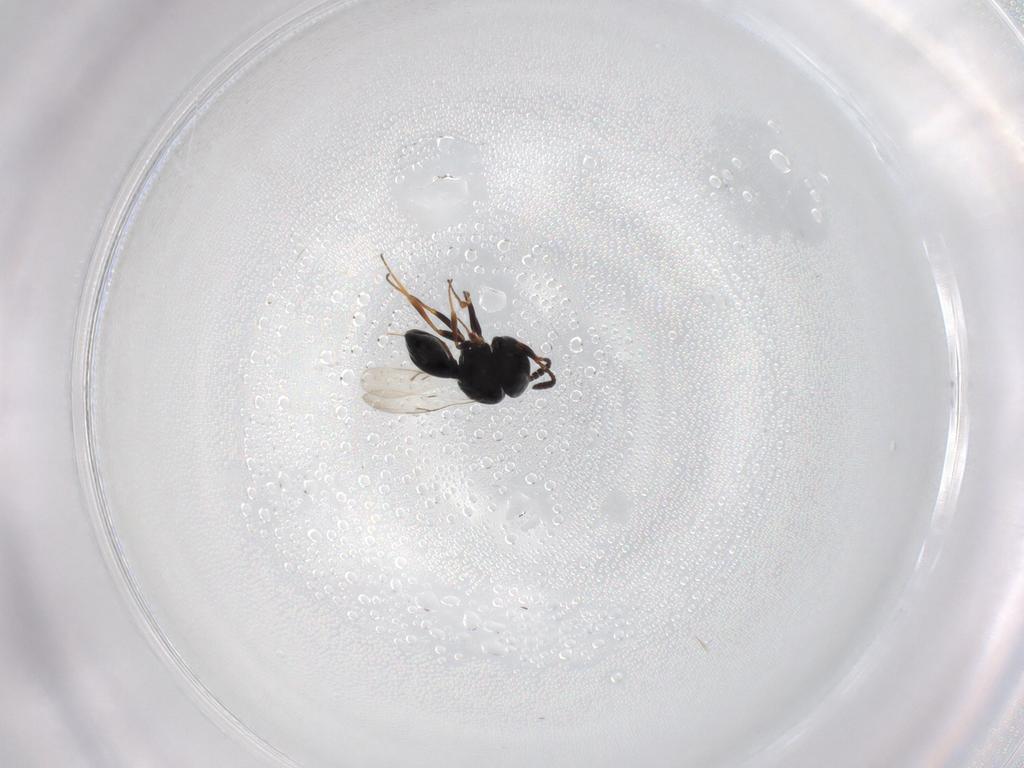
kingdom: Animalia
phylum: Arthropoda
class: Insecta
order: Hymenoptera
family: Scelionidae
